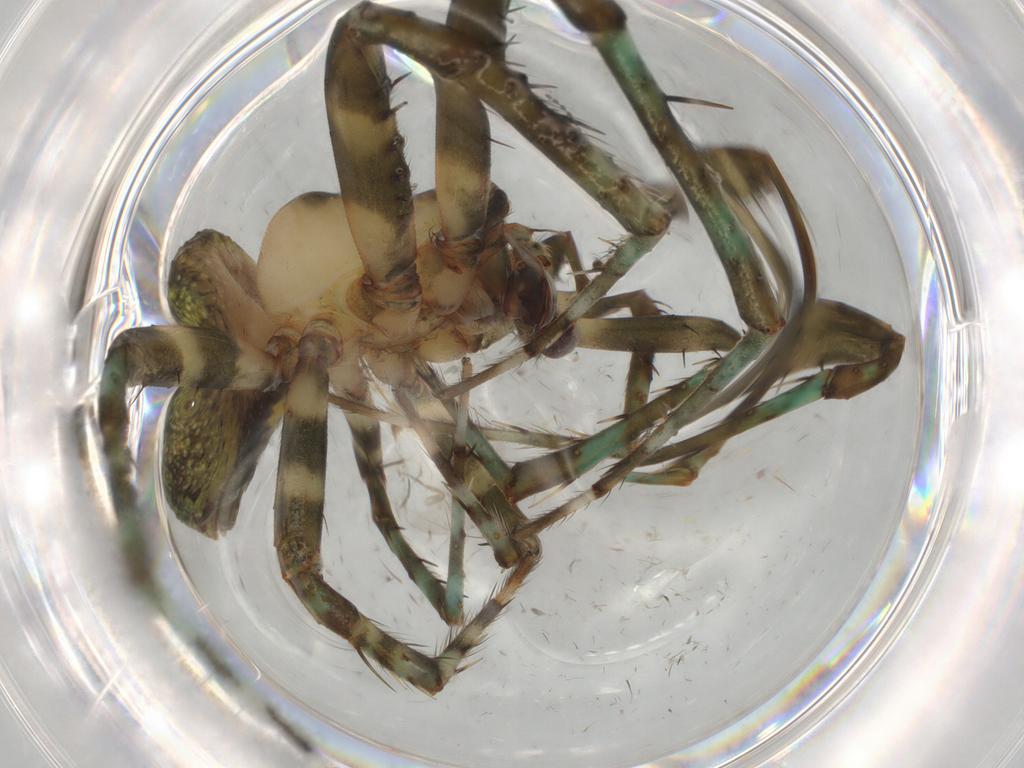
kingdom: Animalia
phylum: Arthropoda
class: Arachnida
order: Araneae
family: Araneidae
